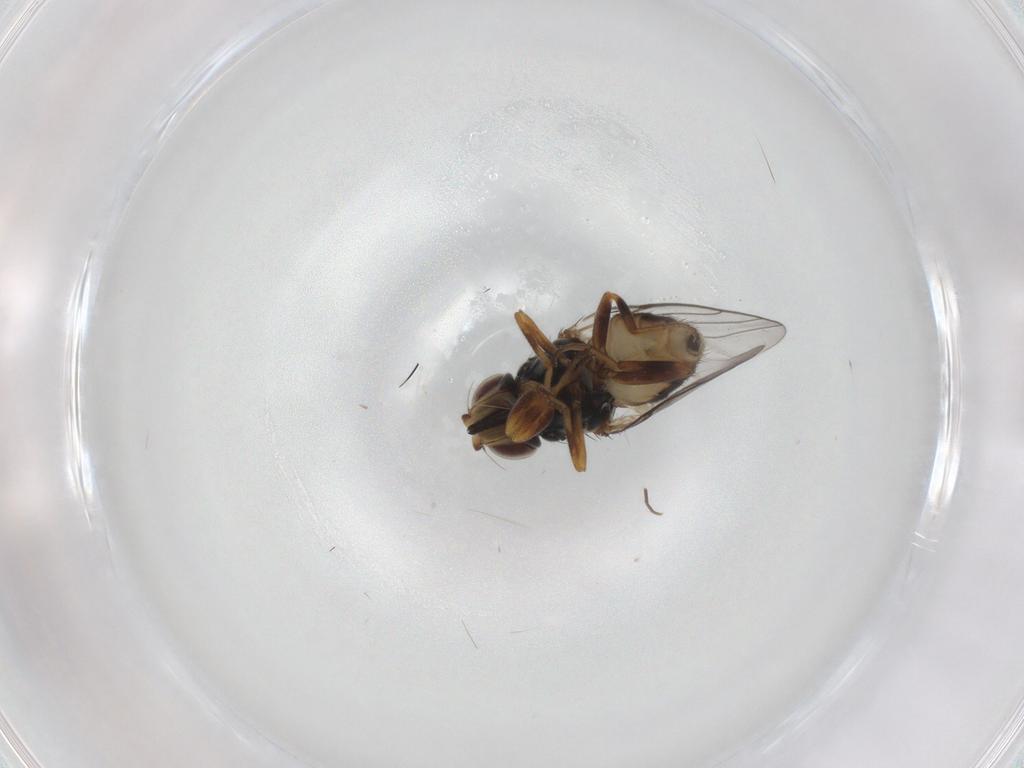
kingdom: Animalia
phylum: Arthropoda
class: Insecta
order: Diptera
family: Chloropidae
